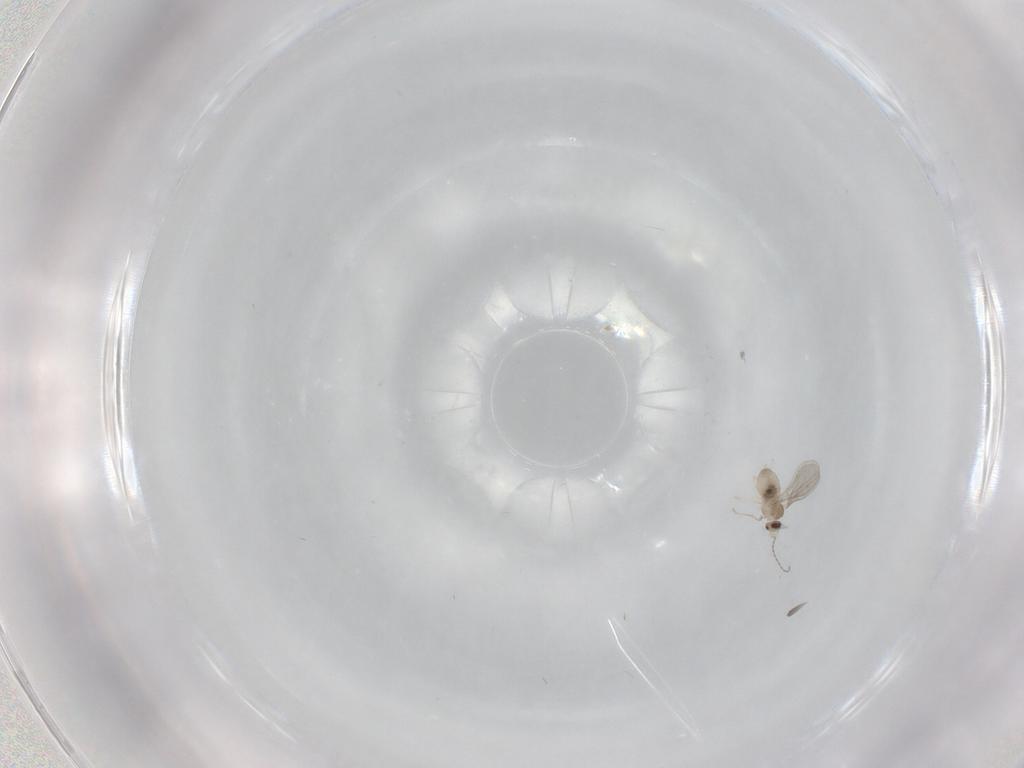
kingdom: Animalia
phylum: Arthropoda
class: Insecta
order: Diptera
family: Cecidomyiidae
